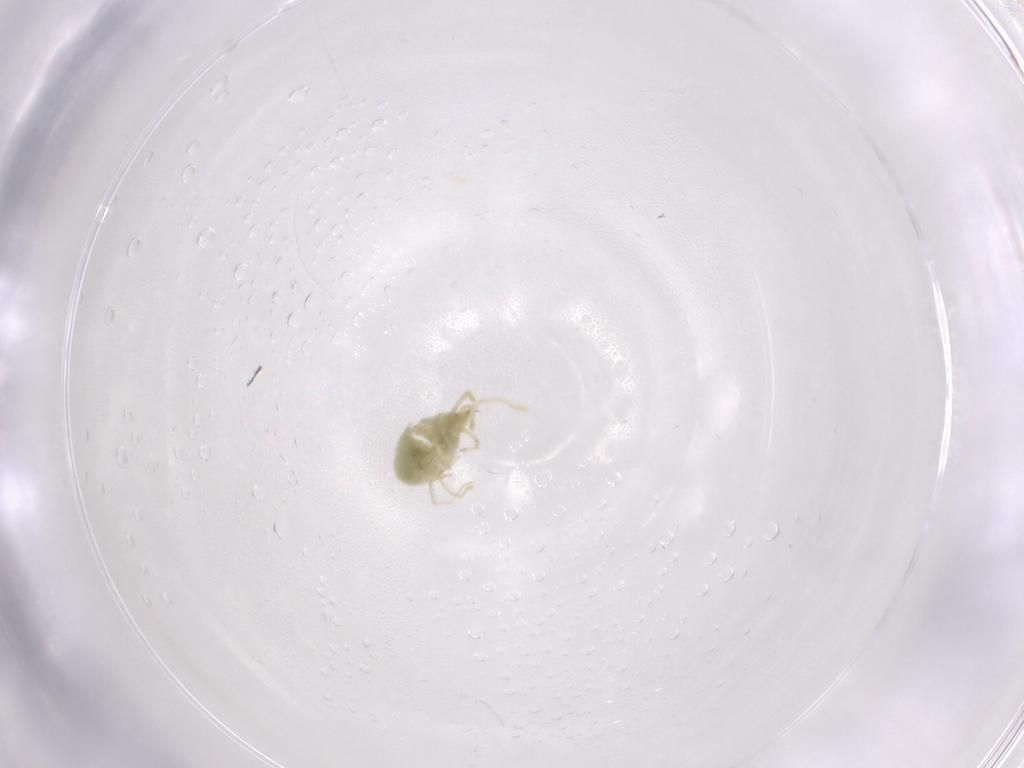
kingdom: Animalia
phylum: Arthropoda
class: Arachnida
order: Trombidiformes
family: Erythraeidae
